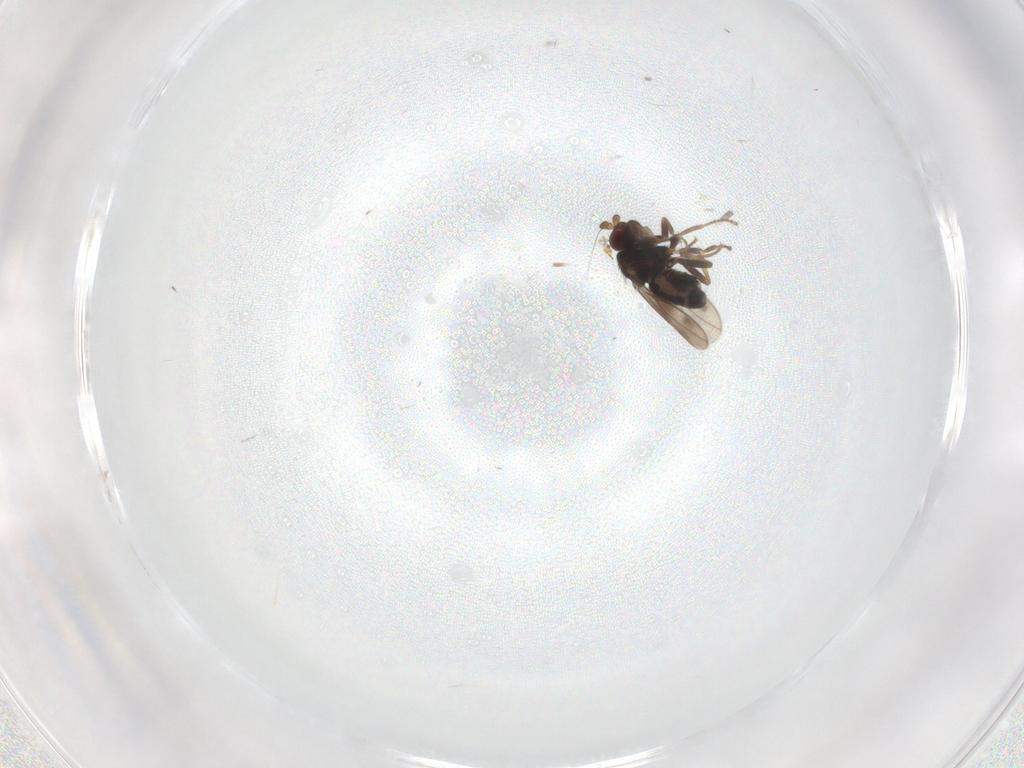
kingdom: Animalia
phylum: Arthropoda
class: Insecta
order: Diptera
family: Sphaeroceridae
